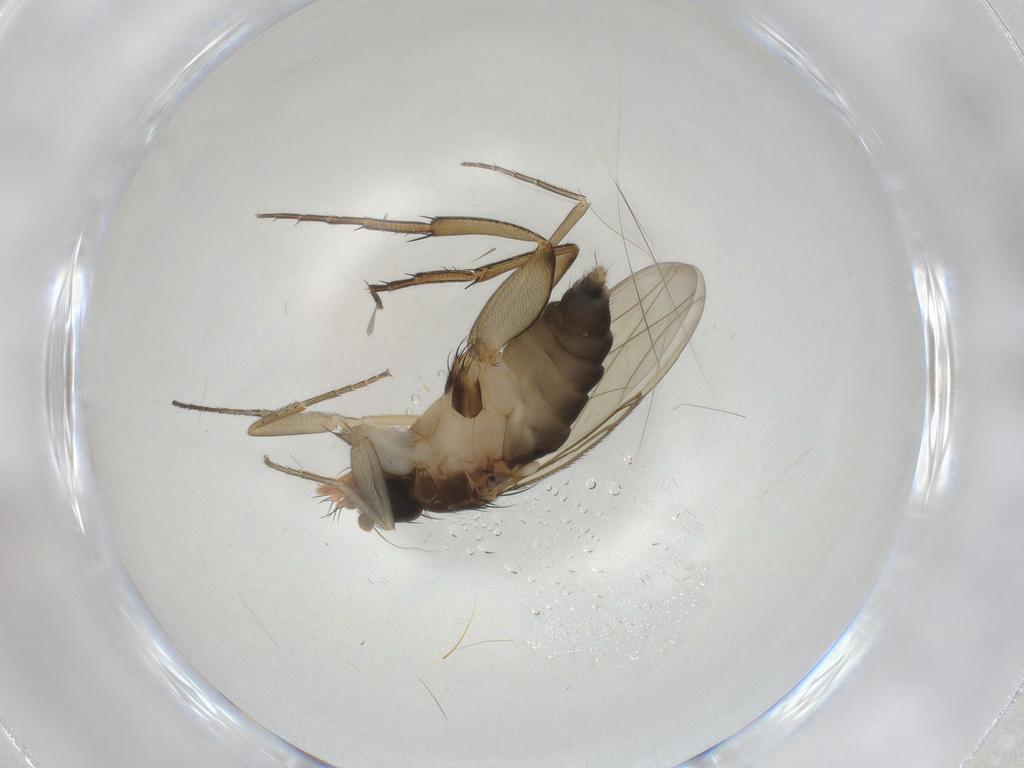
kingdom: Animalia
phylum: Arthropoda
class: Insecta
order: Diptera
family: Phoridae
